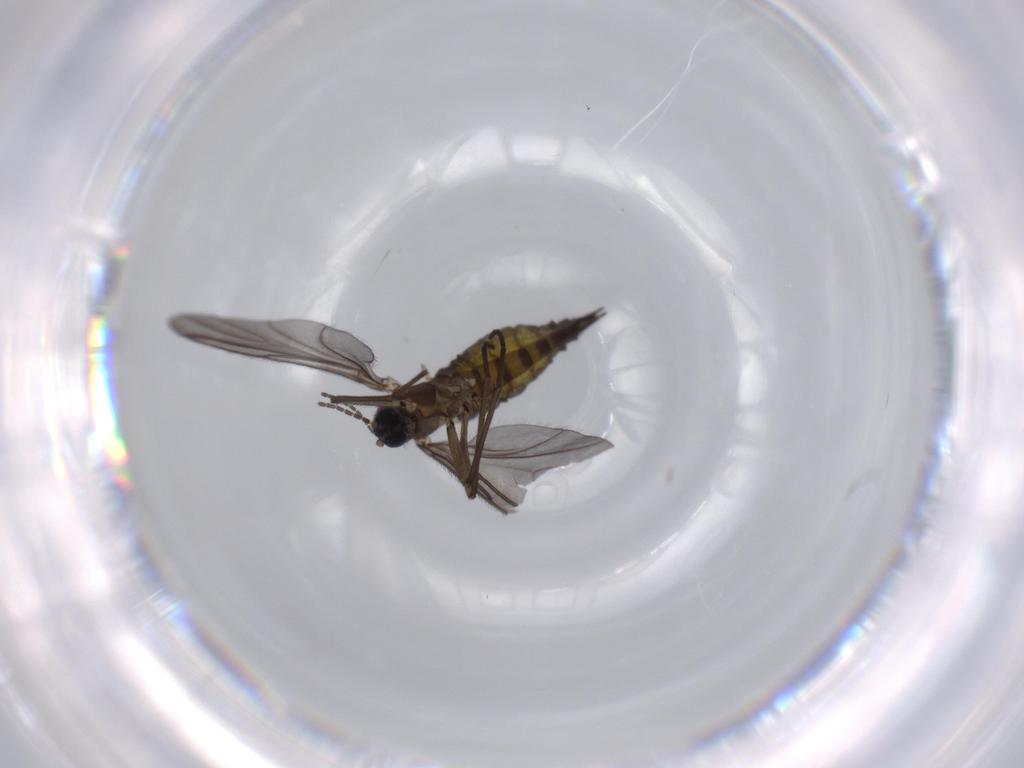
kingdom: Animalia
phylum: Arthropoda
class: Insecta
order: Diptera
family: Sciaridae
